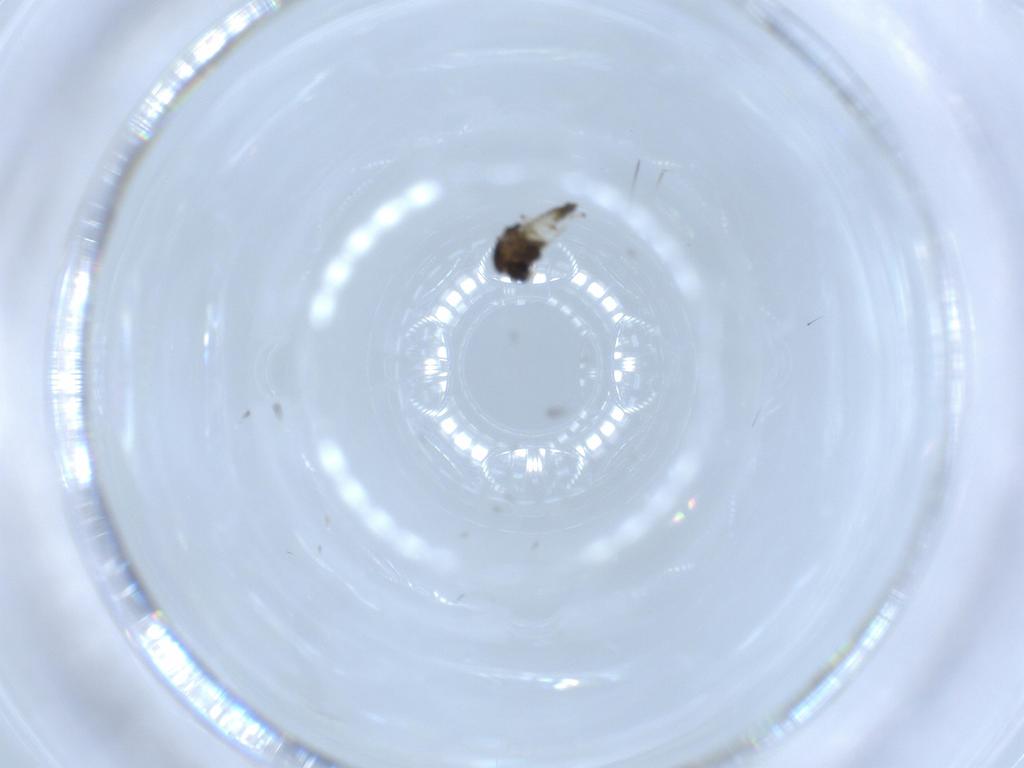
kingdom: Animalia
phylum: Arthropoda
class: Insecta
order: Diptera
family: Chironomidae
